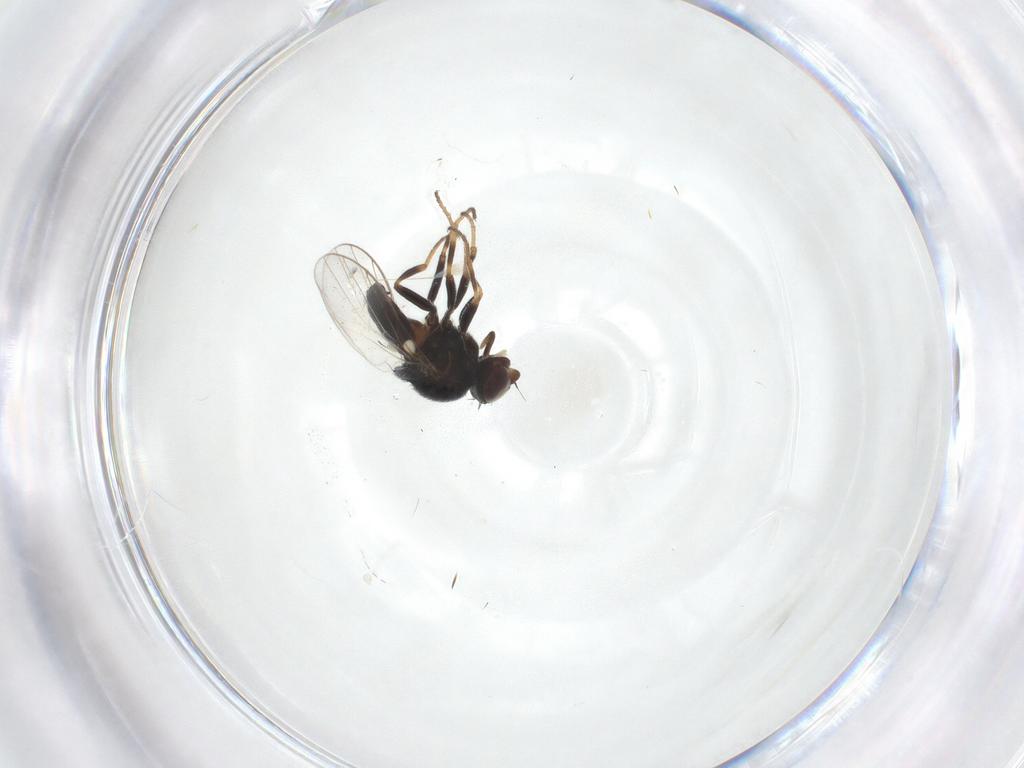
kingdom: Animalia
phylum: Arthropoda
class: Insecta
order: Diptera
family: Chloropidae
